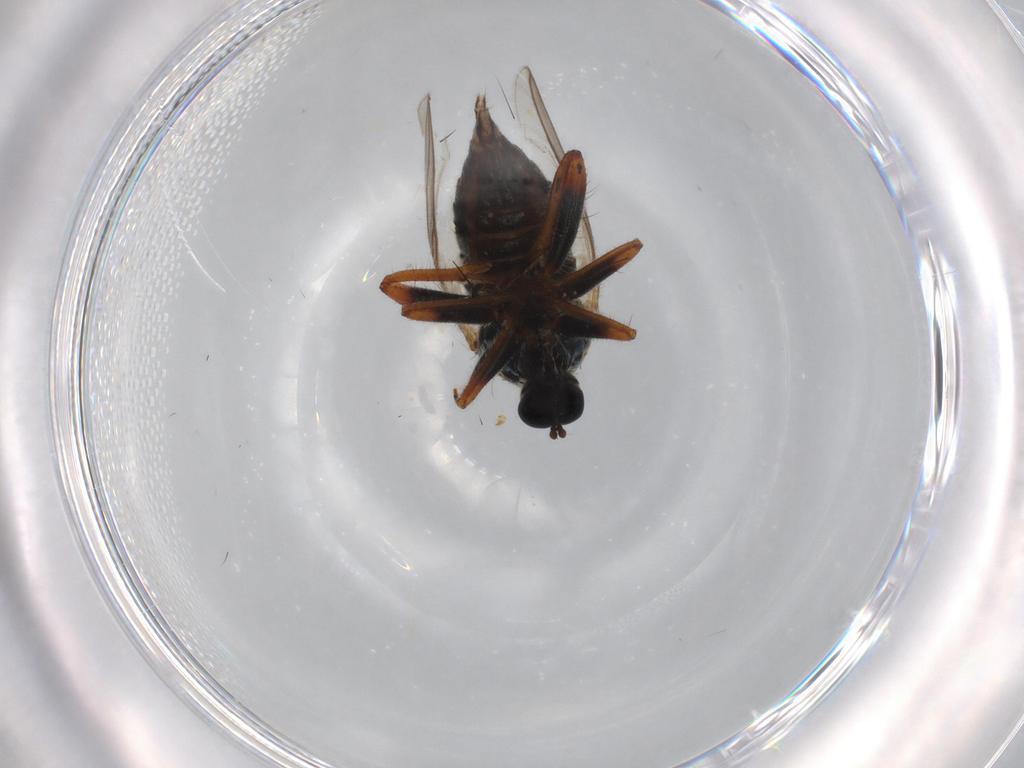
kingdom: Animalia
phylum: Arthropoda
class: Insecta
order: Diptera
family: Hybotidae
